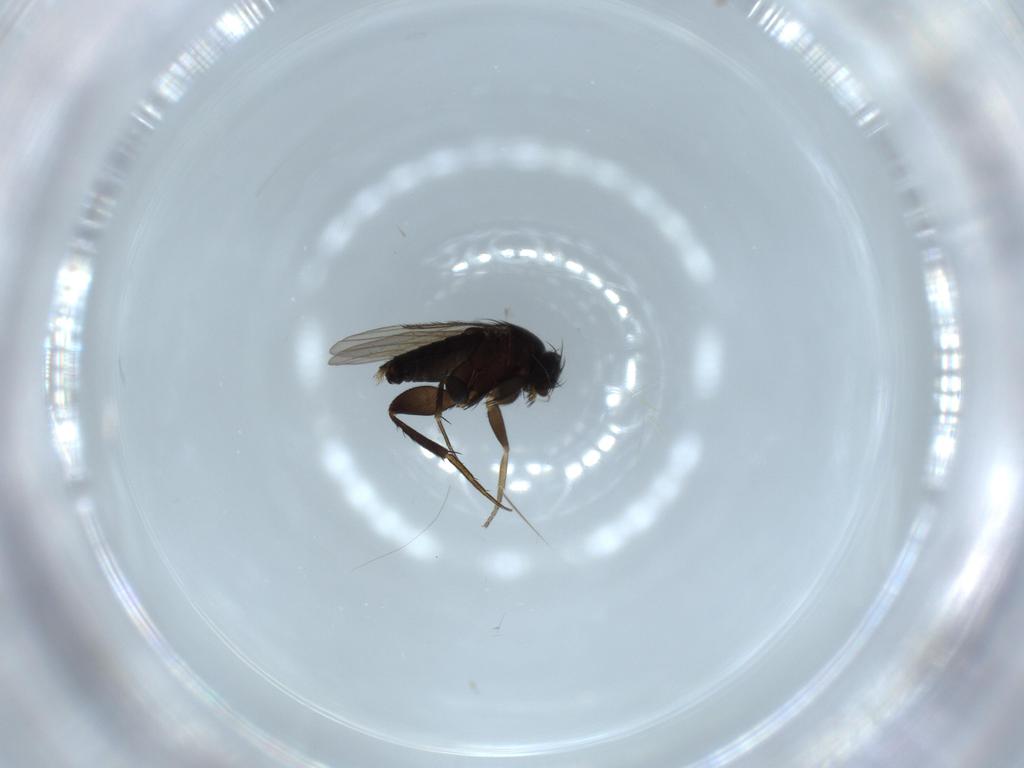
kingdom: Animalia
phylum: Arthropoda
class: Insecta
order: Diptera
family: Phoridae
